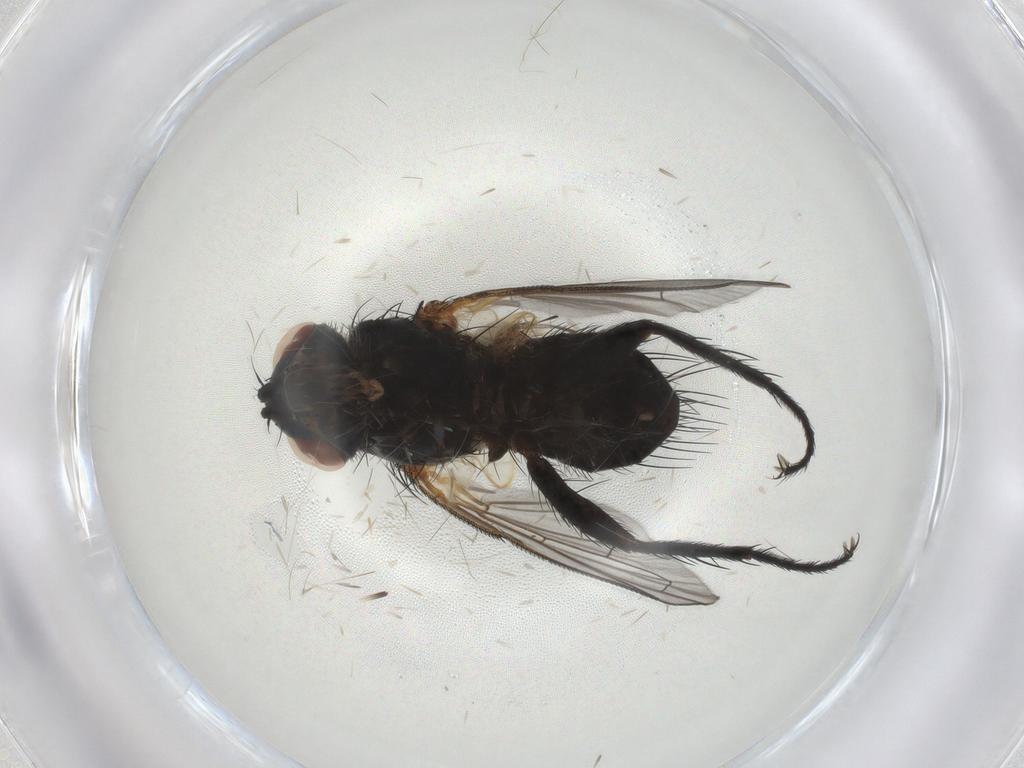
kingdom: Animalia
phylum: Arthropoda
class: Insecta
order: Diptera
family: Tachinidae
